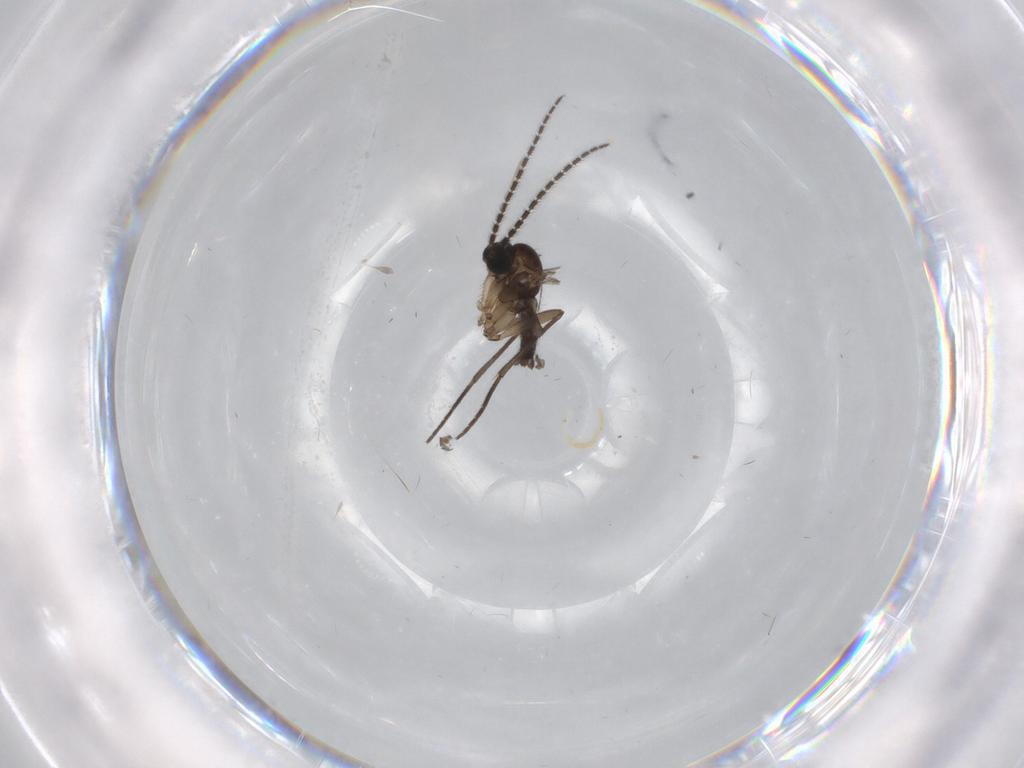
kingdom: Animalia
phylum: Arthropoda
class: Insecta
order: Diptera
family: Sciaridae
